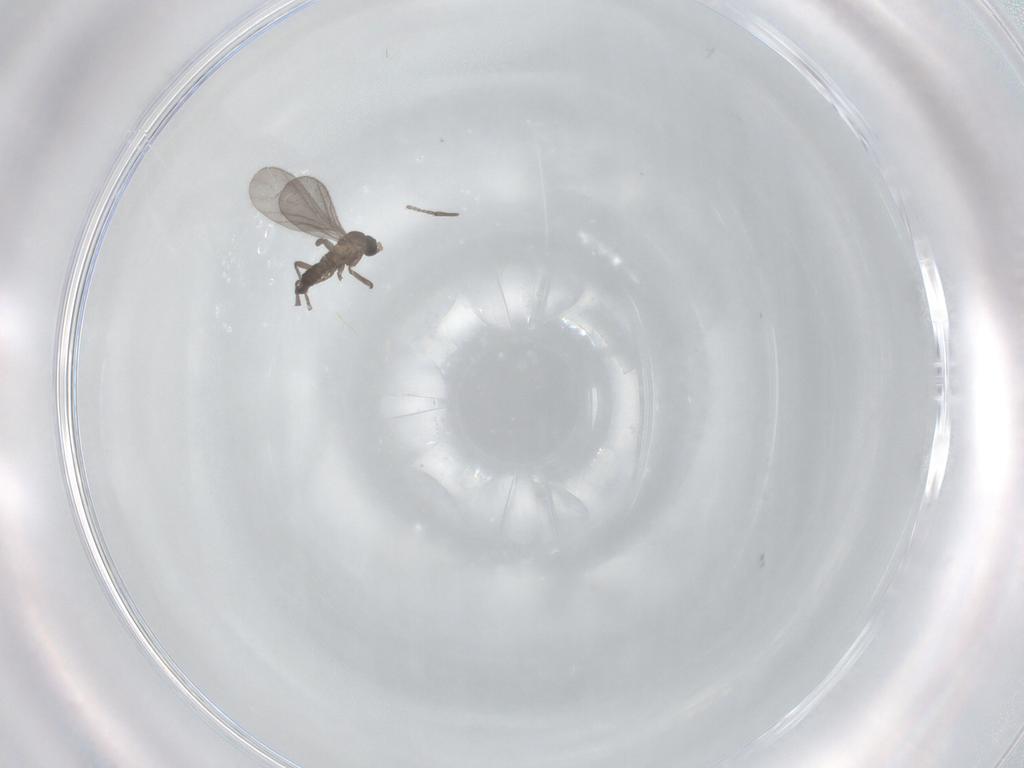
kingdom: Animalia
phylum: Arthropoda
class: Insecta
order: Diptera
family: Sciaridae
